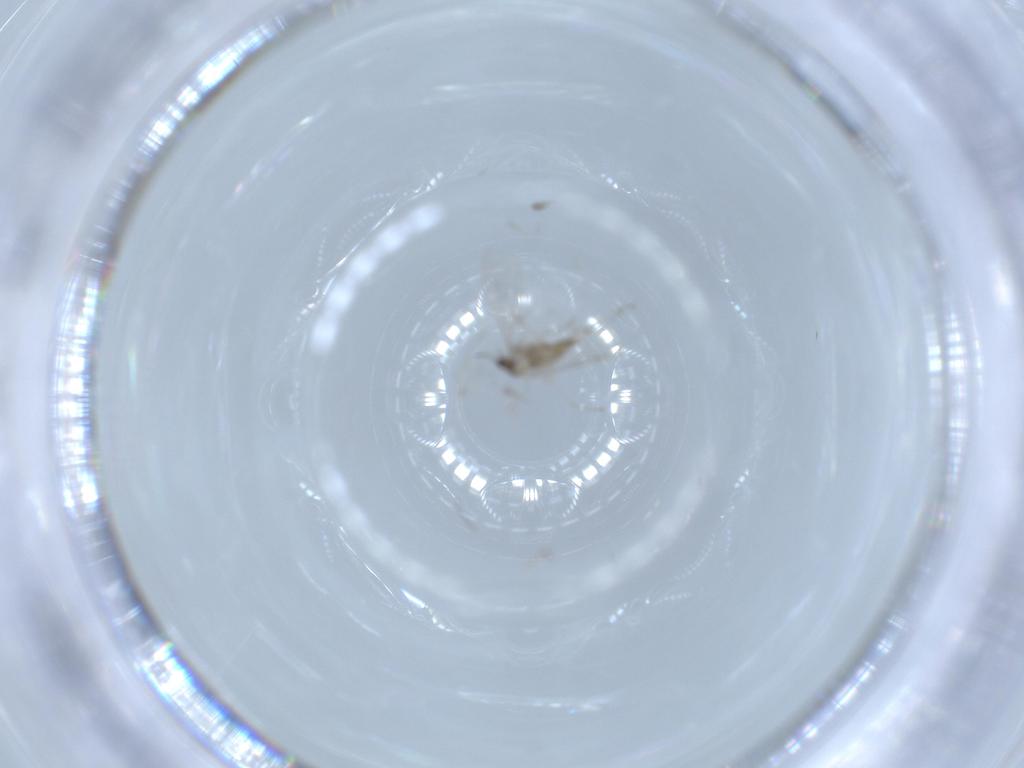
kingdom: Animalia
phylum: Arthropoda
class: Insecta
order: Diptera
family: Cecidomyiidae
